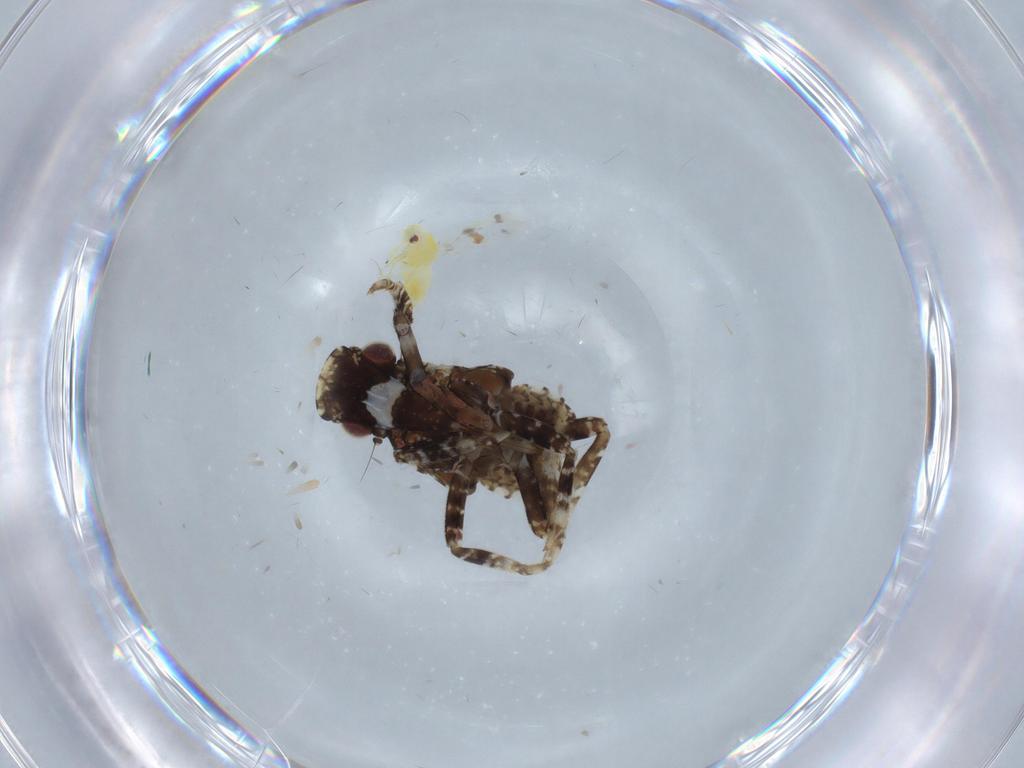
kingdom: Animalia
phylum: Arthropoda
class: Insecta
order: Hemiptera
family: Fulgoridae
